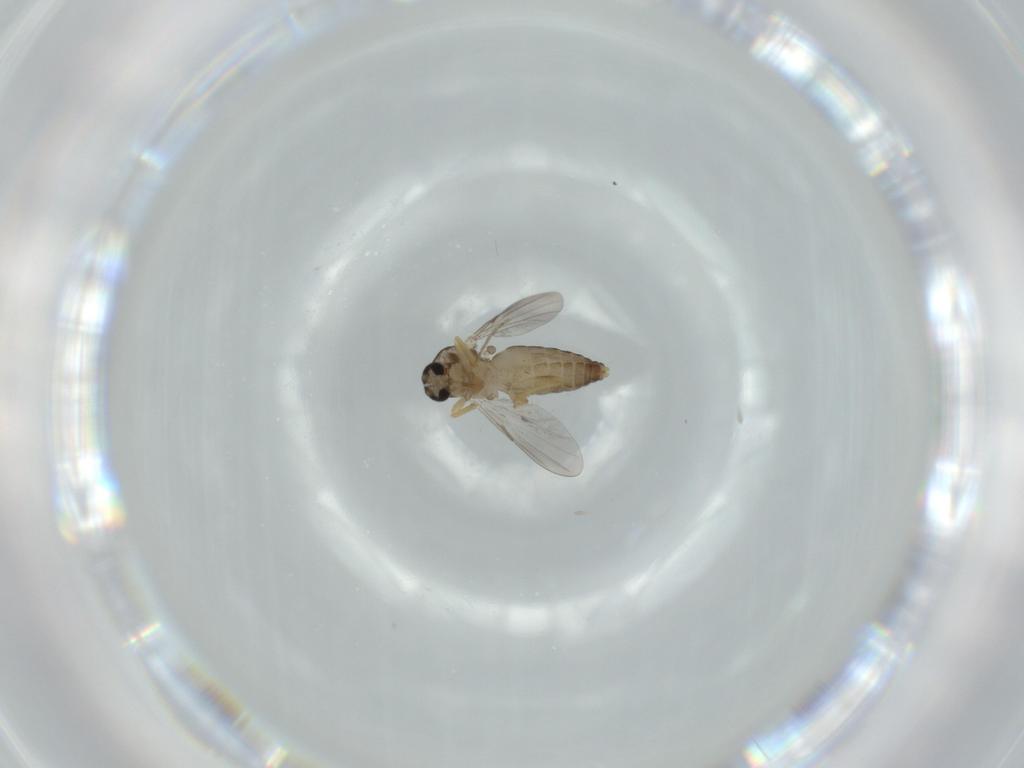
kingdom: Animalia
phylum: Arthropoda
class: Insecta
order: Diptera
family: Ceratopogonidae
